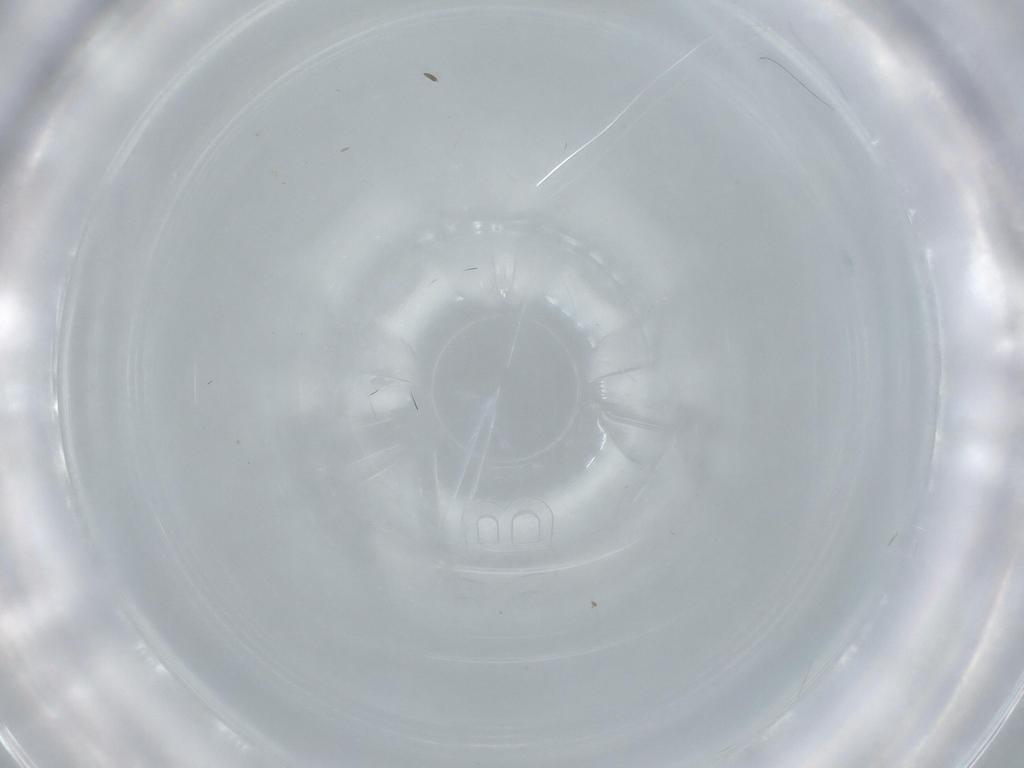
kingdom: Animalia
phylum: Arthropoda
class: Insecta
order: Diptera
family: Cecidomyiidae
